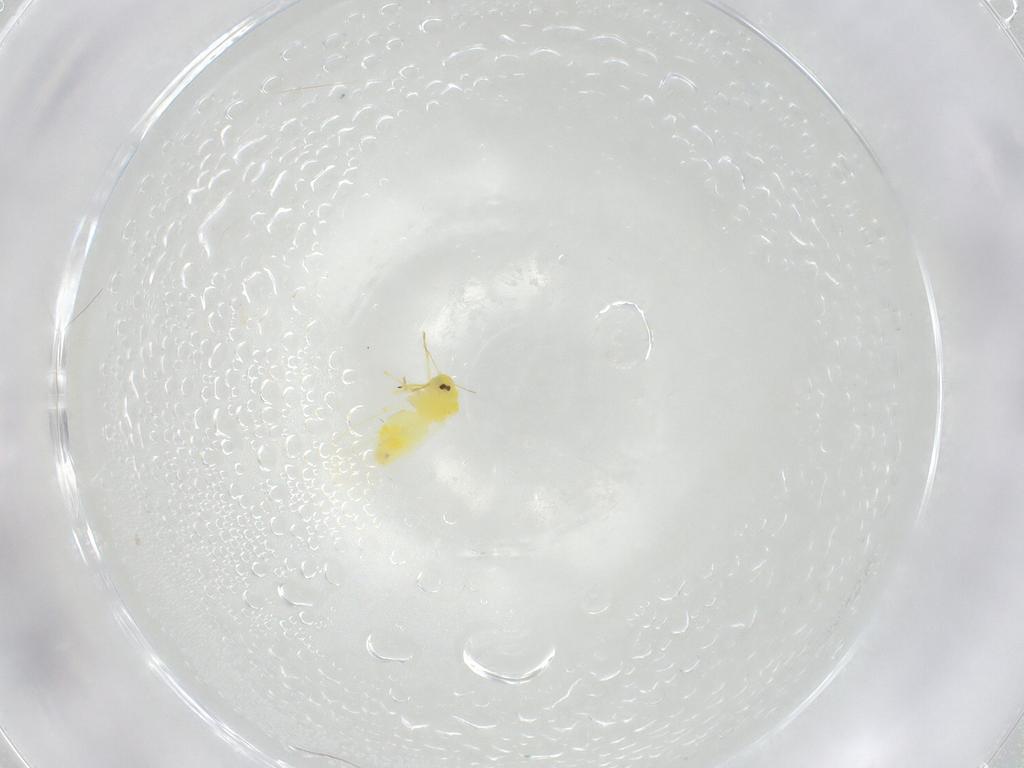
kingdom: Animalia
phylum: Arthropoda
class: Insecta
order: Hemiptera
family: Aleyrodidae
